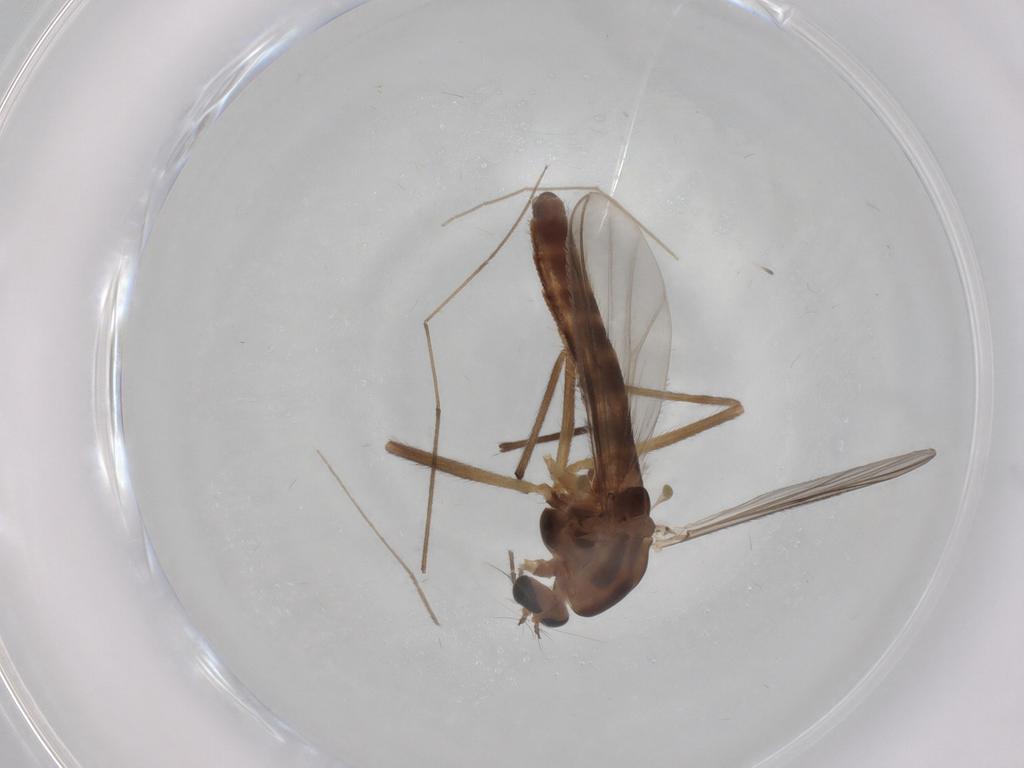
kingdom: Animalia
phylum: Arthropoda
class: Insecta
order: Diptera
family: Chironomidae
